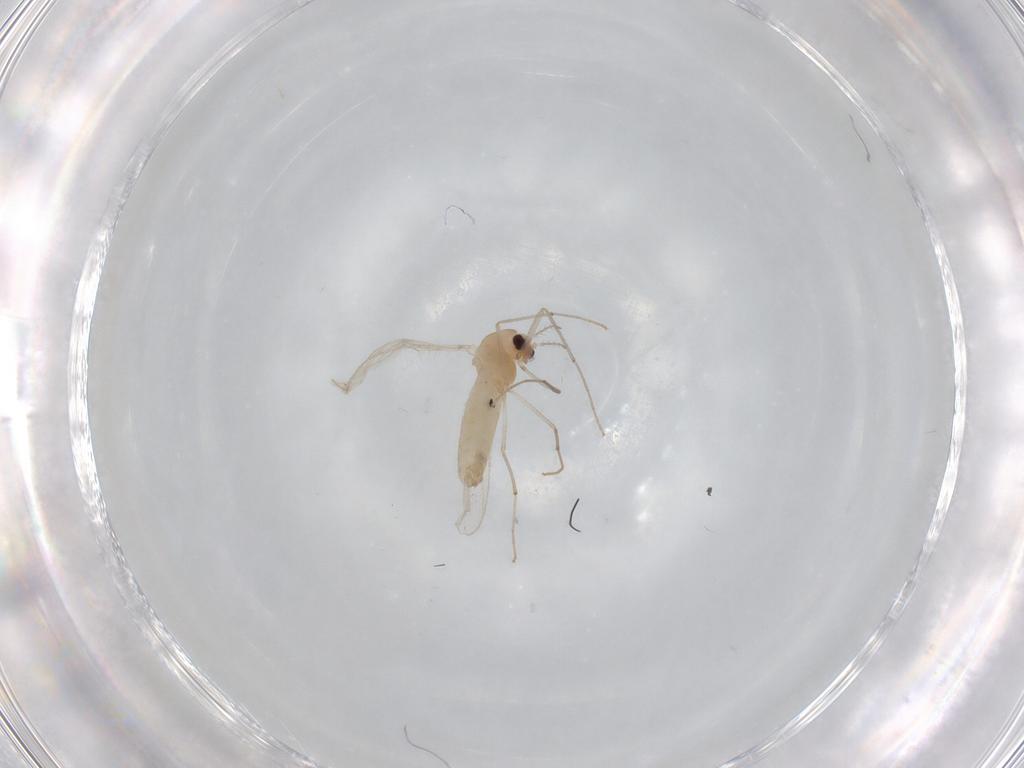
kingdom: Animalia
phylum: Arthropoda
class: Insecta
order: Diptera
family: Chironomidae
